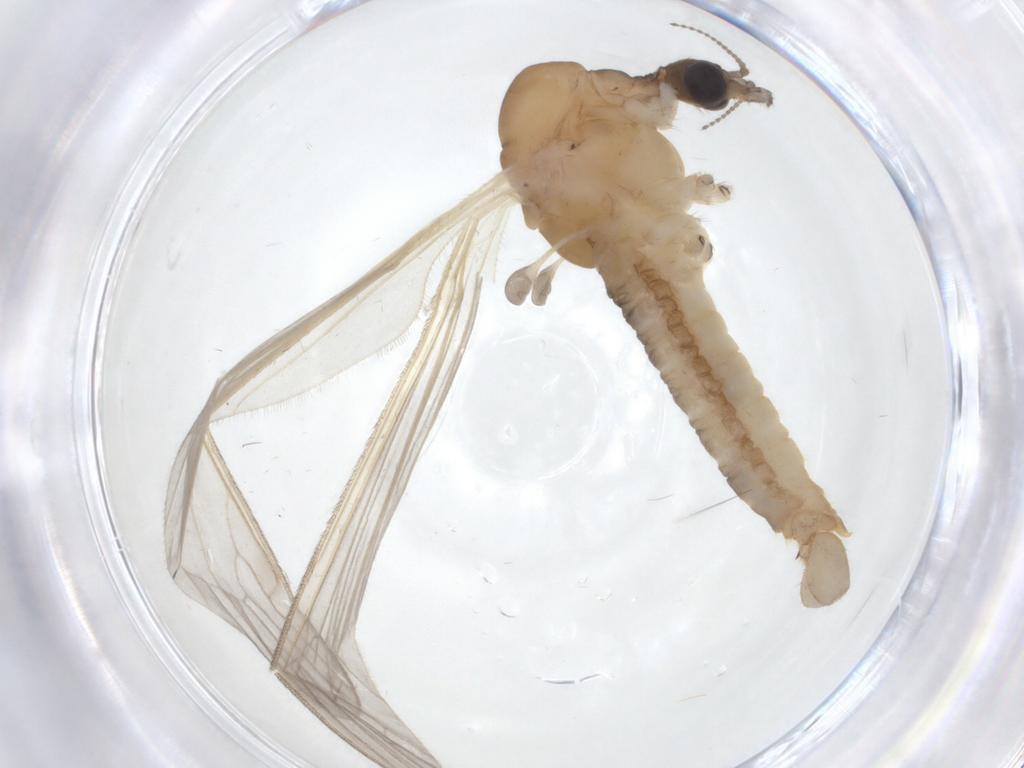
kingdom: Animalia
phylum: Arthropoda
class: Insecta
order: Diptera
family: Limoniidae
